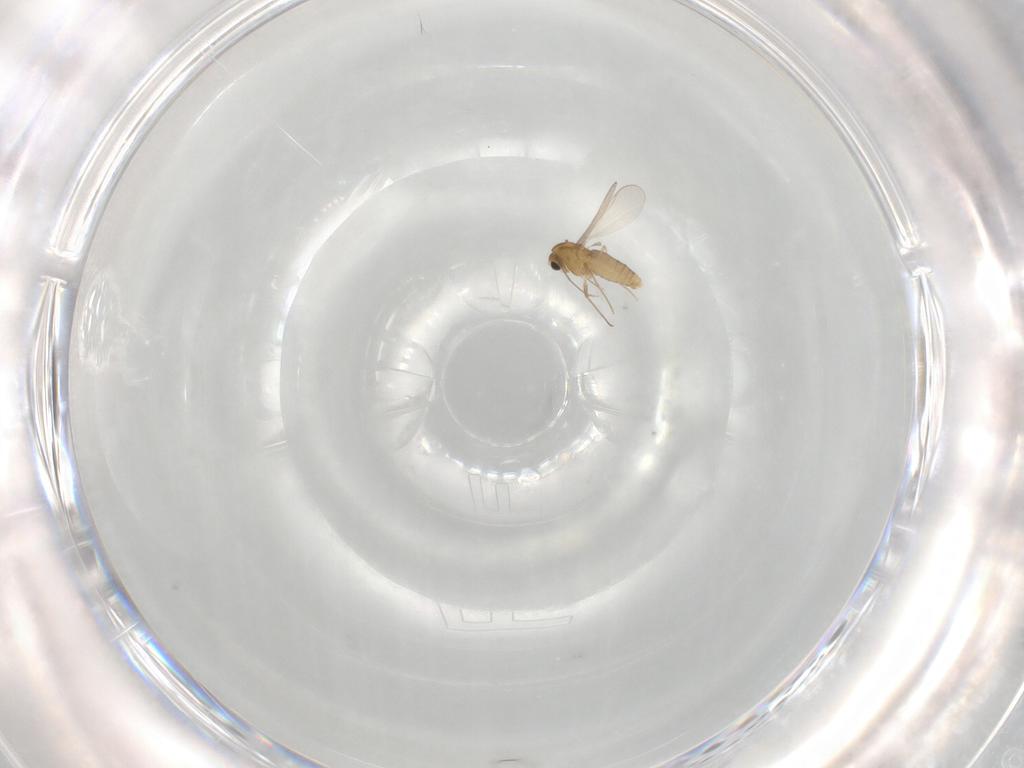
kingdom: Animalia
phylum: Arthropoda
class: Insecta
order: Diptera
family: Chironomidae
